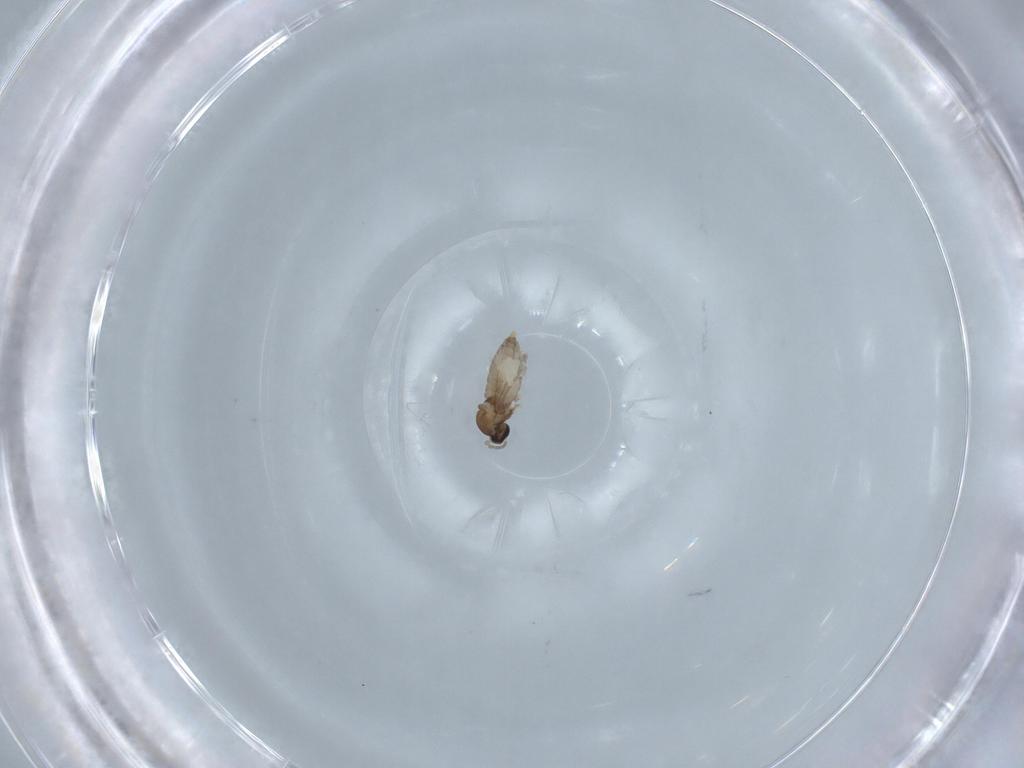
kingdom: Animalia
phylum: Arthropoda
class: Insecta
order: Diptera
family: Cecidomyiidae
